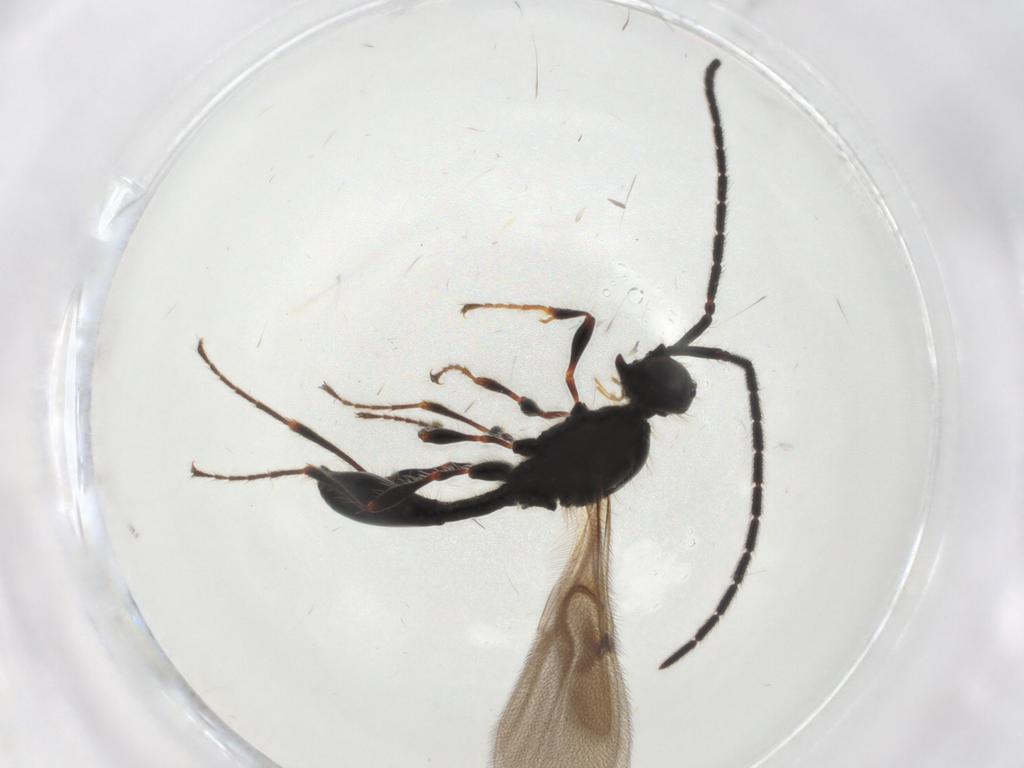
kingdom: Animalia
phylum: Arthropoda
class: Insecta
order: Hymenoptera
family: Diapriidae
